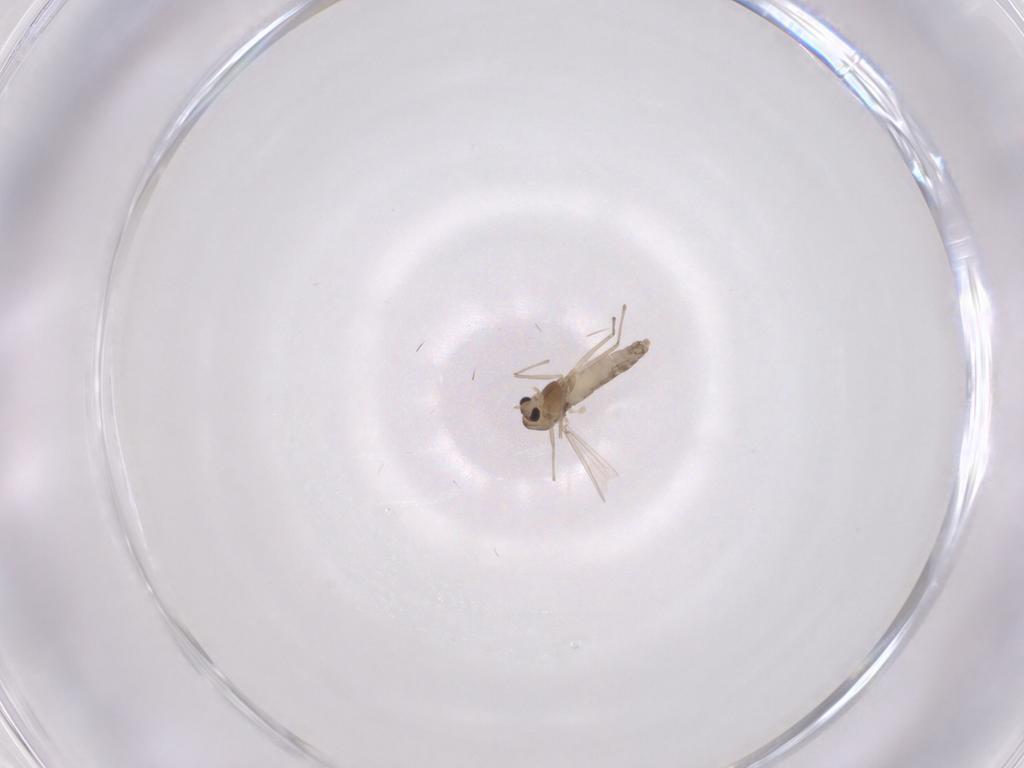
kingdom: Animalia
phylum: Arthropoda
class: Insecta
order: Diptera
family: Chironomidae
